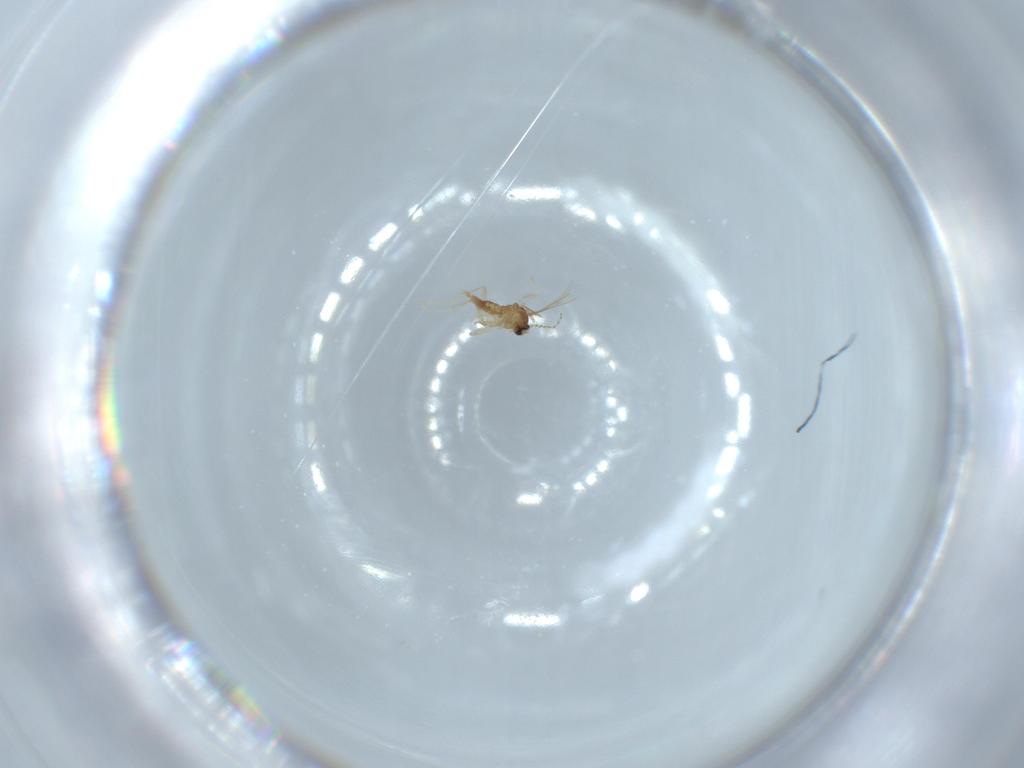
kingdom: Animalia
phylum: Arthropoda
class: Insecta
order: Diptera
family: Cecidomyiidae
